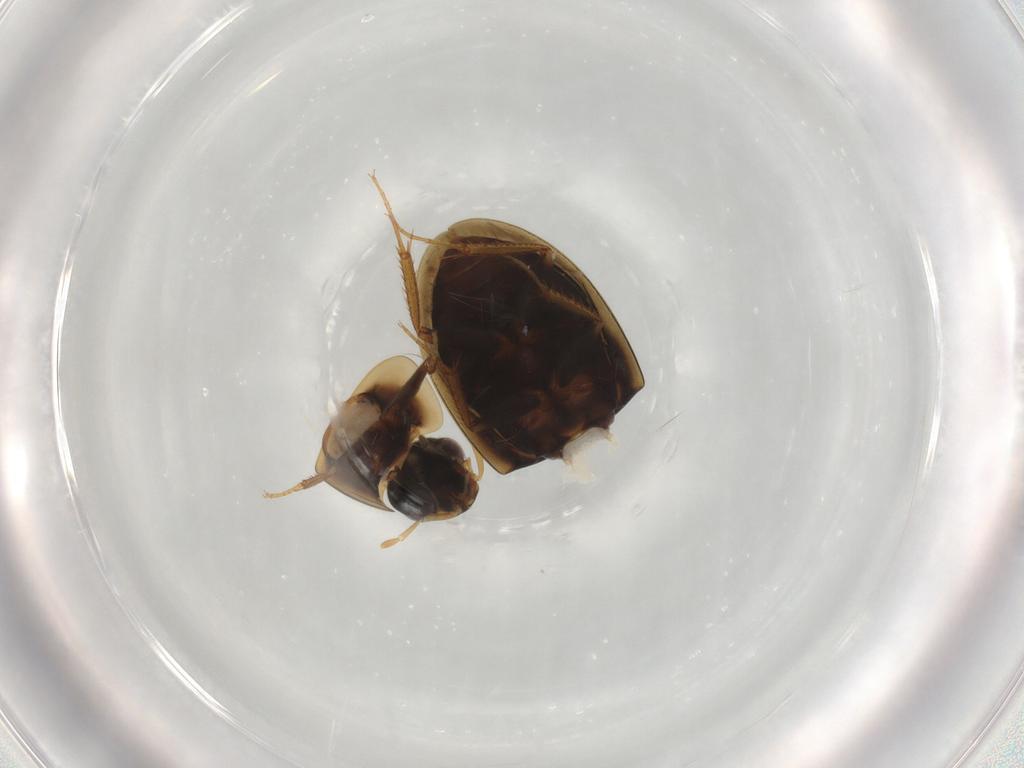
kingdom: Animalia
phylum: Arthropoda
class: Insecta
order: Coleoptera
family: Hydrophilidae
